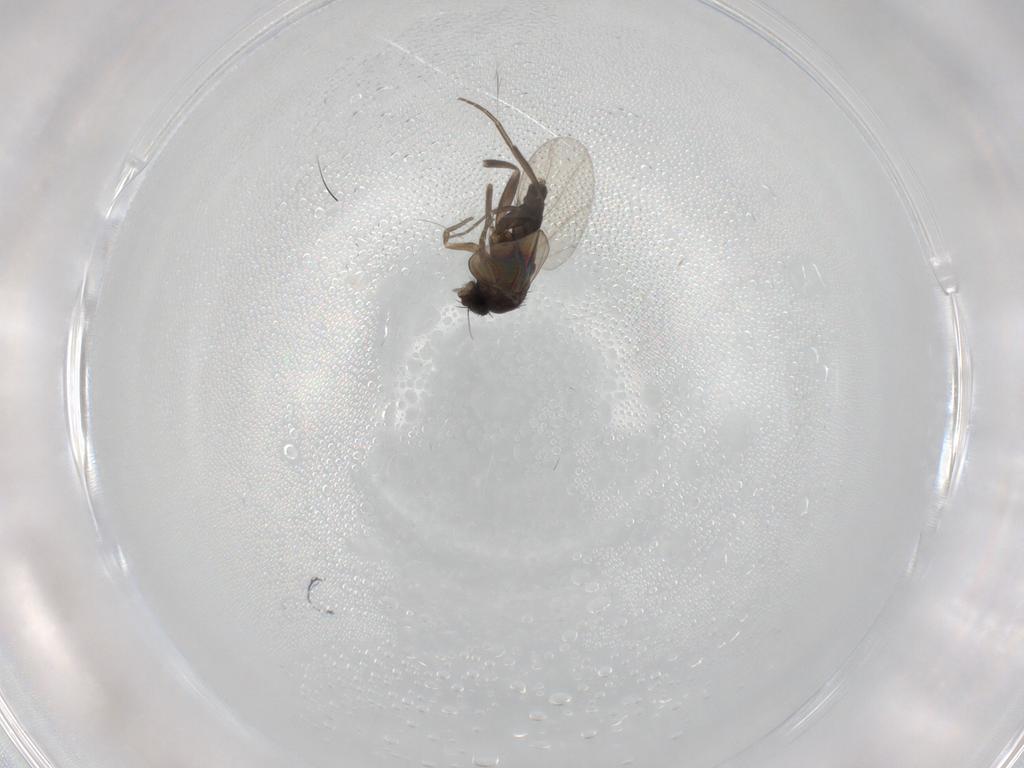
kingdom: Animalia
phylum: Arthropoda
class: Insecta
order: Diptera
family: Phoridae
